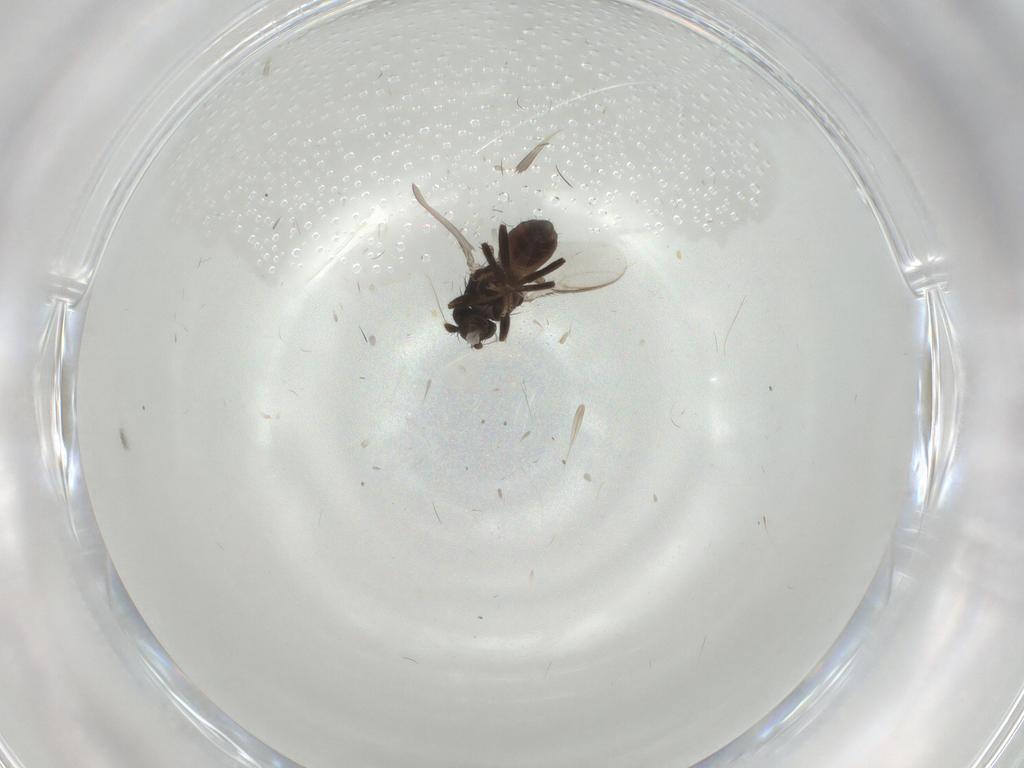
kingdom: Animalia
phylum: Arthropoda
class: Insecta
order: Diptera
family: Sphaeroceridae
